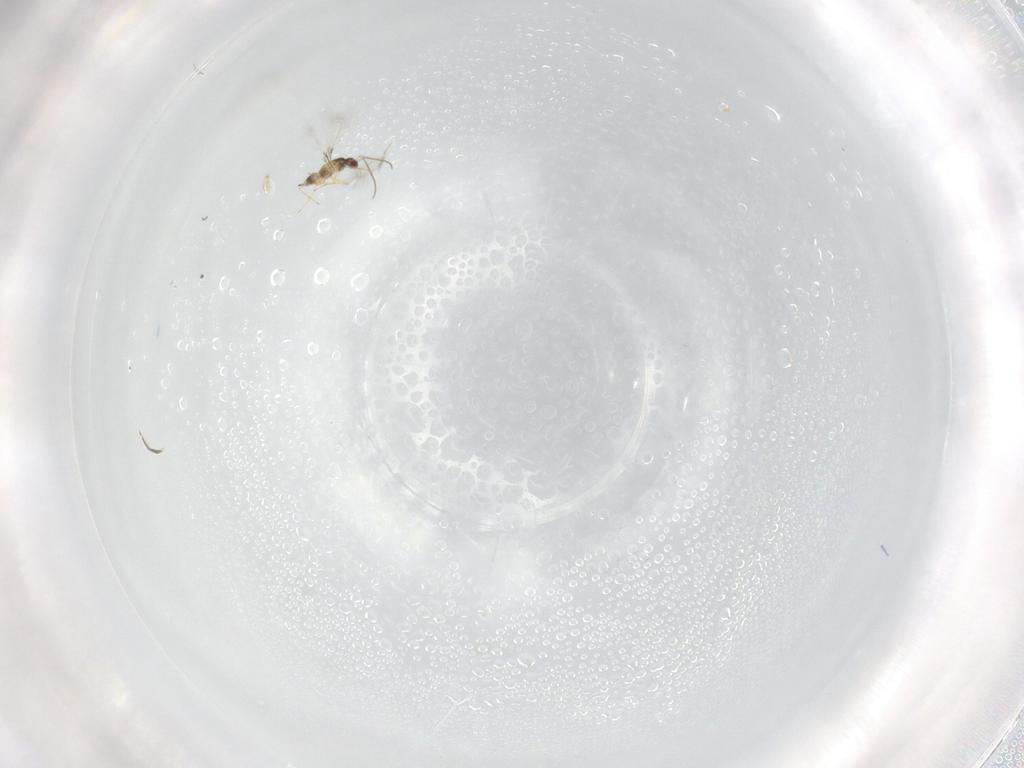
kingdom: Animalia
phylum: Arthropoda
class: Insecta
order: Hymenoptera
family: Mymaridae
